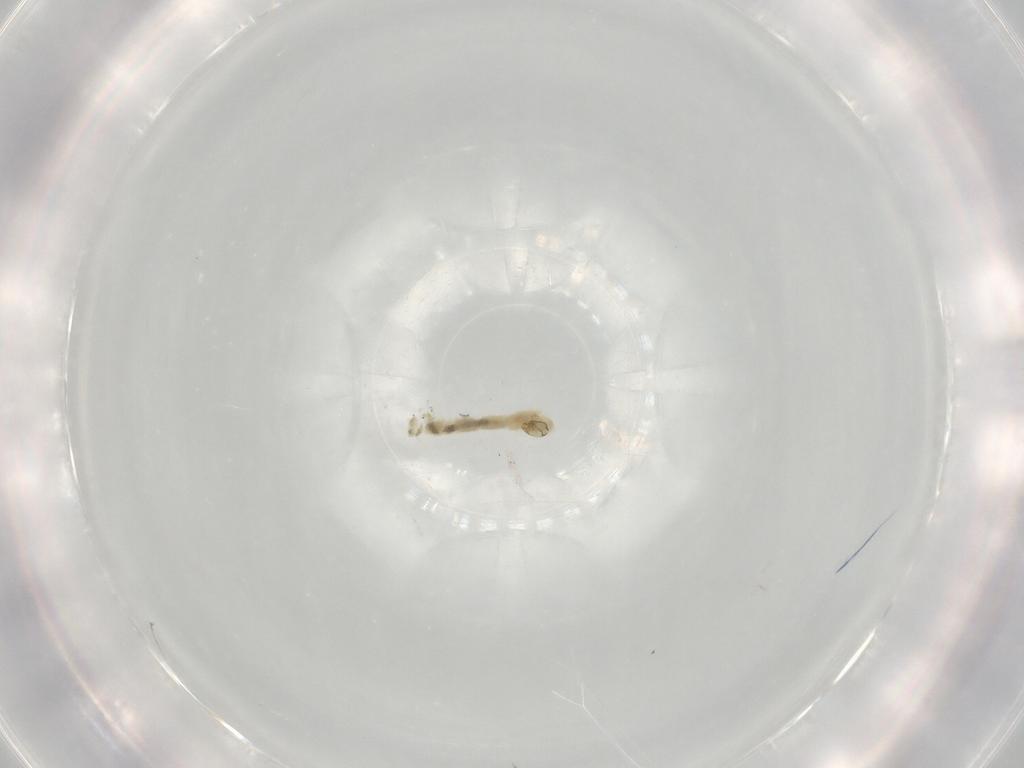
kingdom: Animalia
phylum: Arthropoda
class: Insecta
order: Diptera
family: Chironomidae
